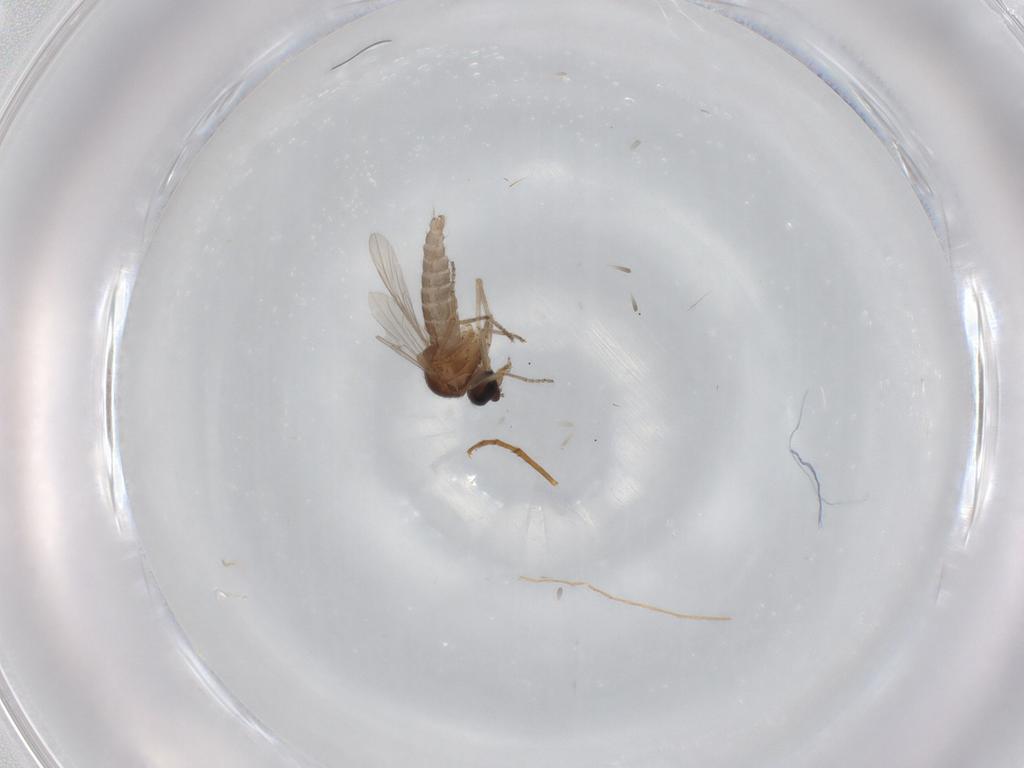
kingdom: Animalia
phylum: Arthropoda
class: Insecta
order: Diptera
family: Ceratopogonidae
